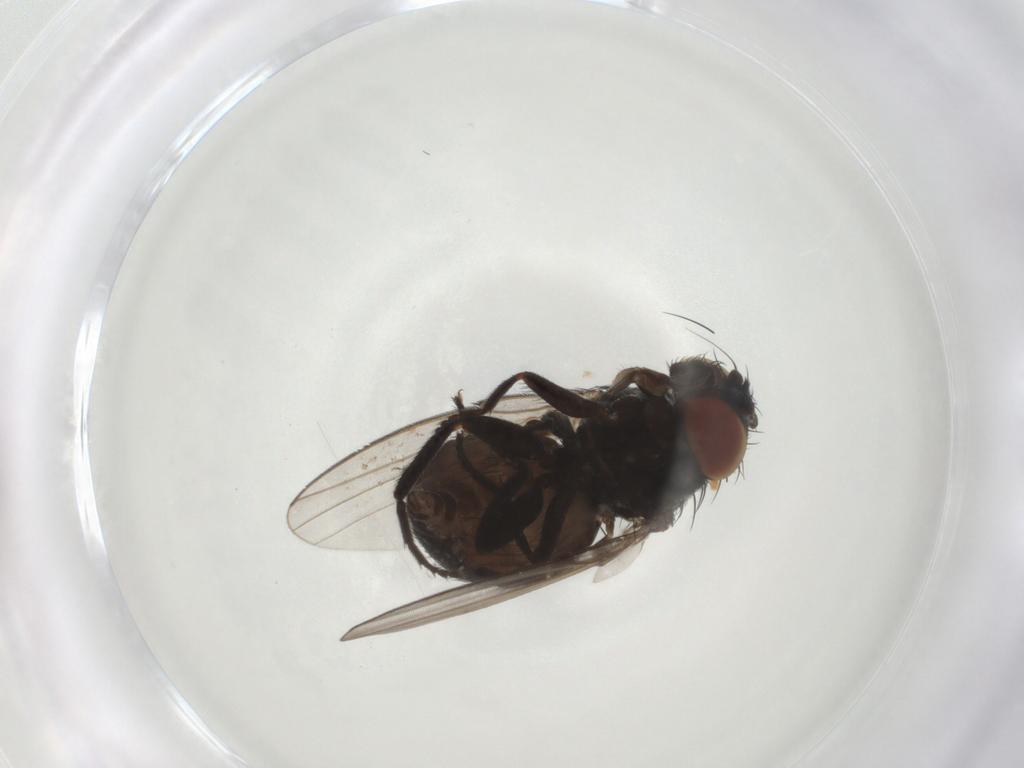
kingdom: Animalia
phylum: Arthropoda
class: Insecta
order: Diptera
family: Milichiidae
